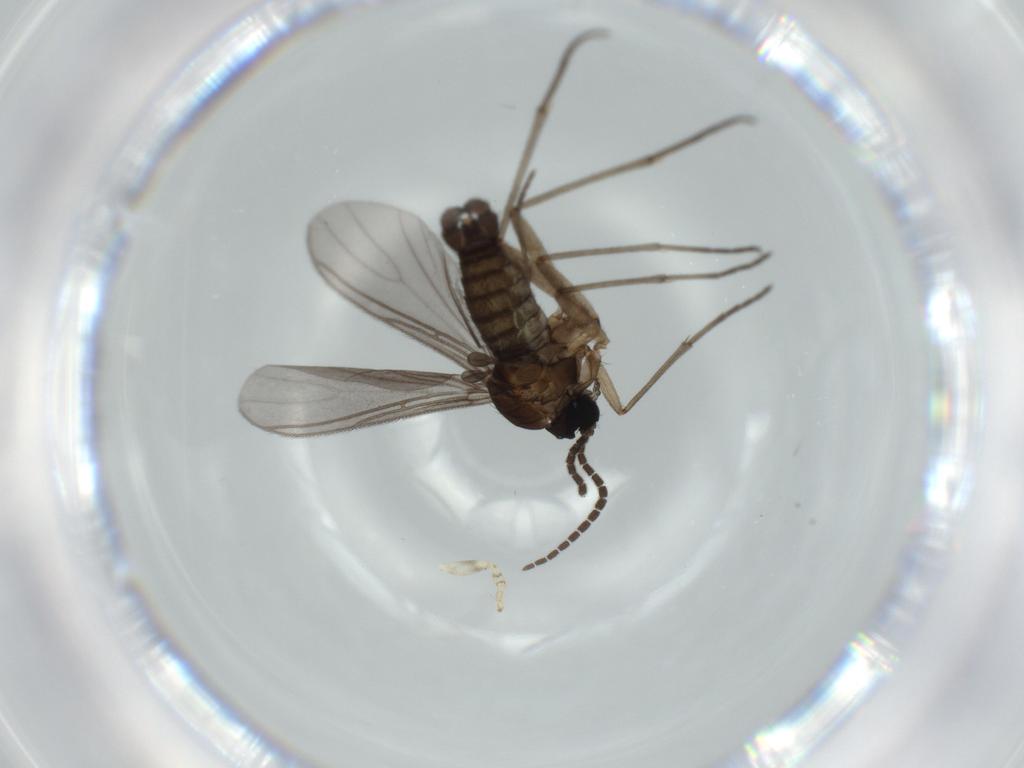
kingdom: Animalia
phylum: Arthropoda
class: Insecta
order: Diptera
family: Sciaridae
